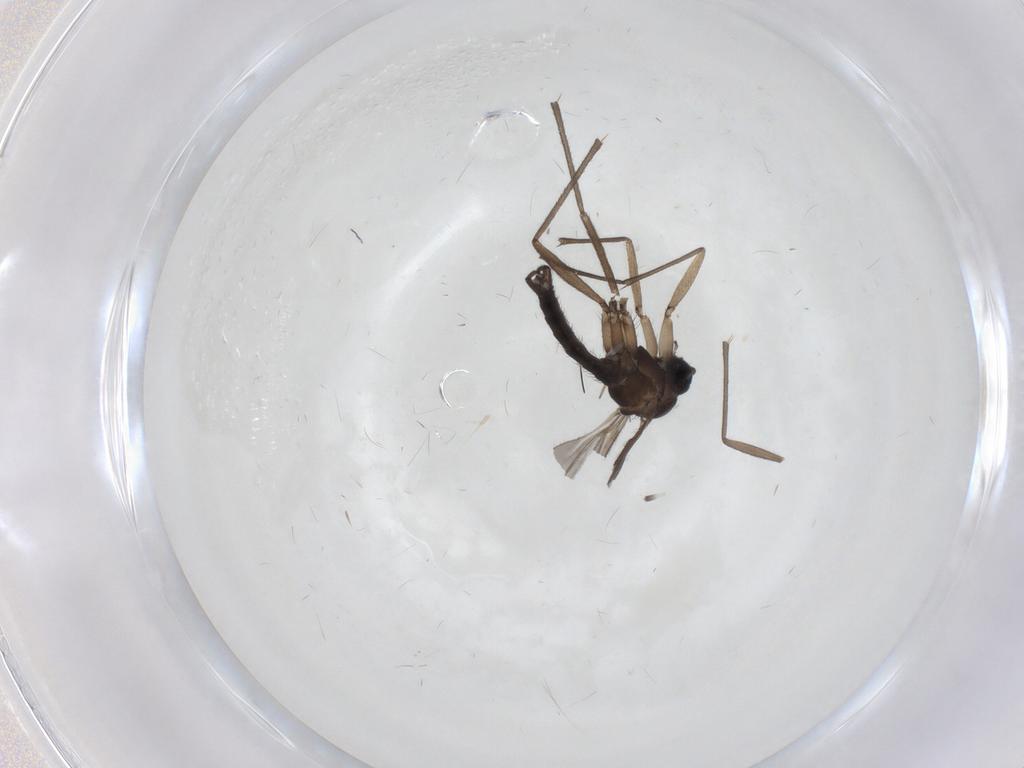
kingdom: Animalia
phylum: Arthropoda
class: Insecta
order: Diptera
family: Sciaridae
